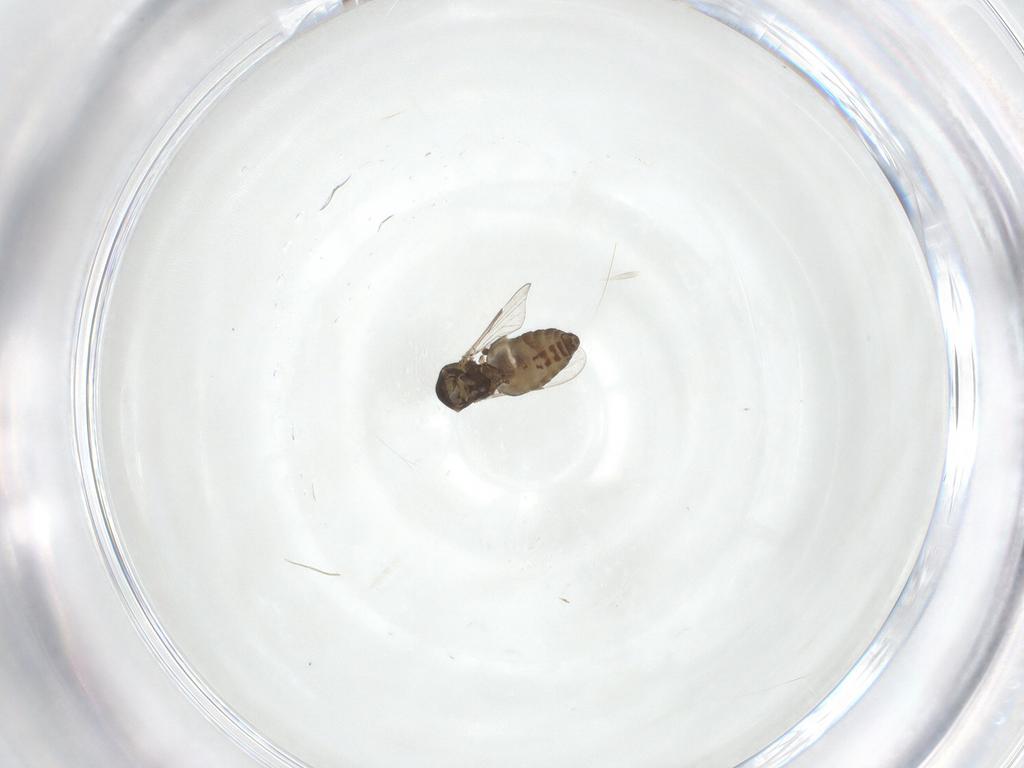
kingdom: Animalia
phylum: Arthropoda
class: Insecta
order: Diptera
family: Ceratopogonidae
